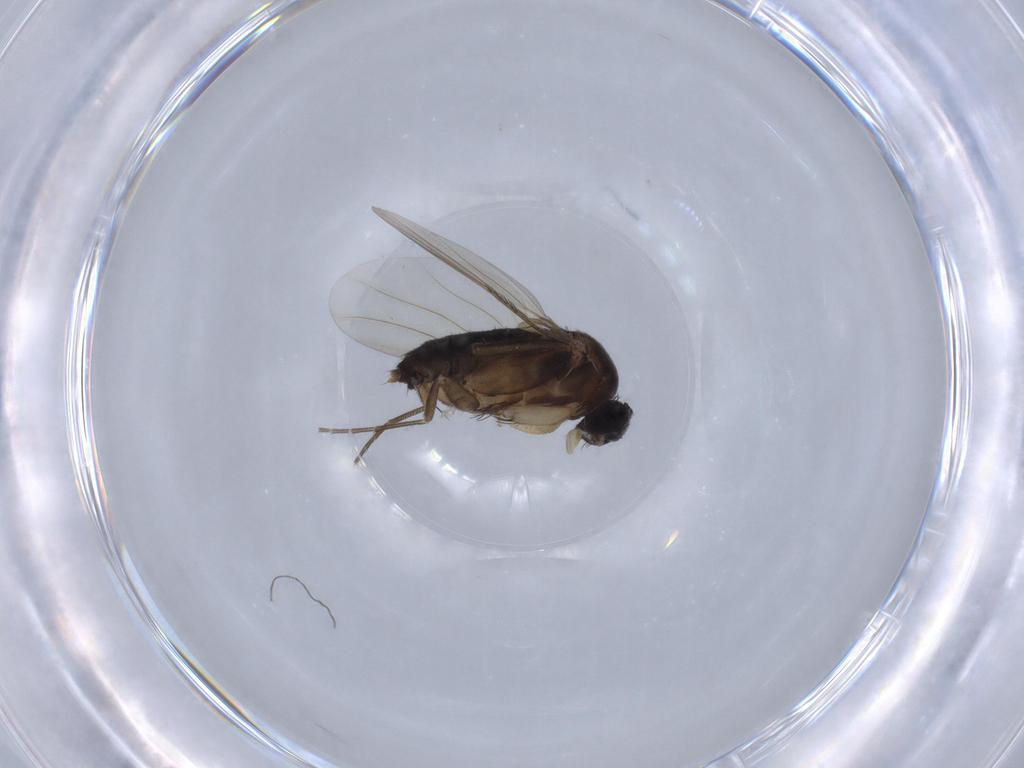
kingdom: Animalia
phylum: Arthropoda
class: Insecta
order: Diptera
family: Phoridae
